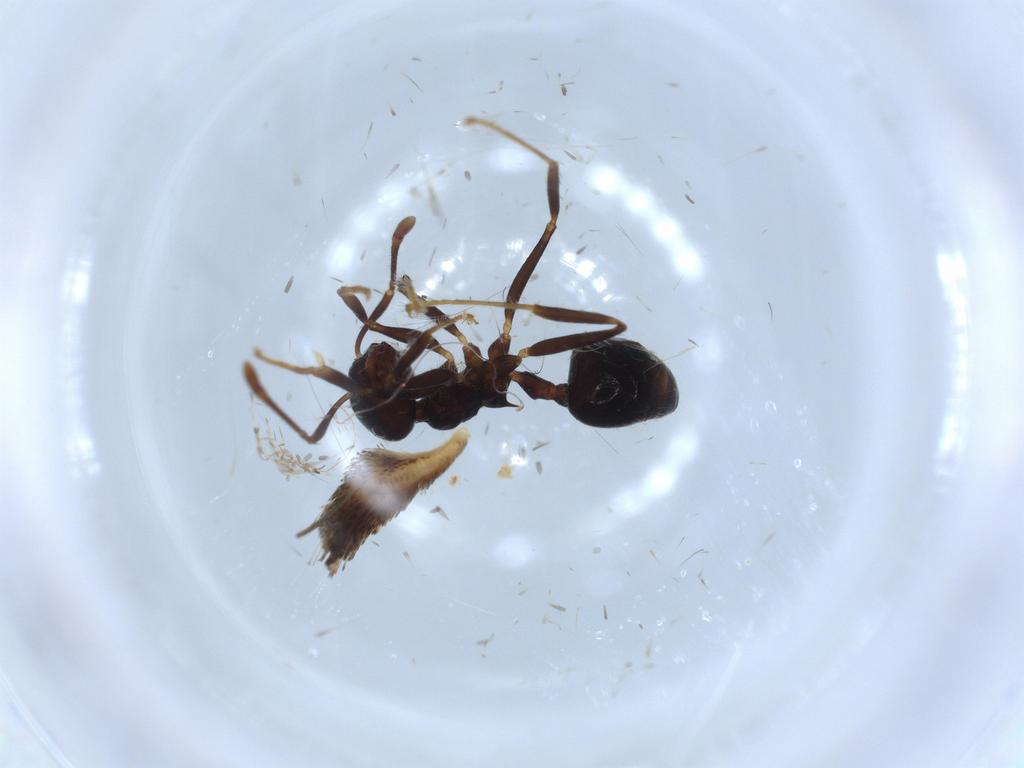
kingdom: Animalia
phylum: Arthropoda
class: Insecta
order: Hymenoptera
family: Formicidae
